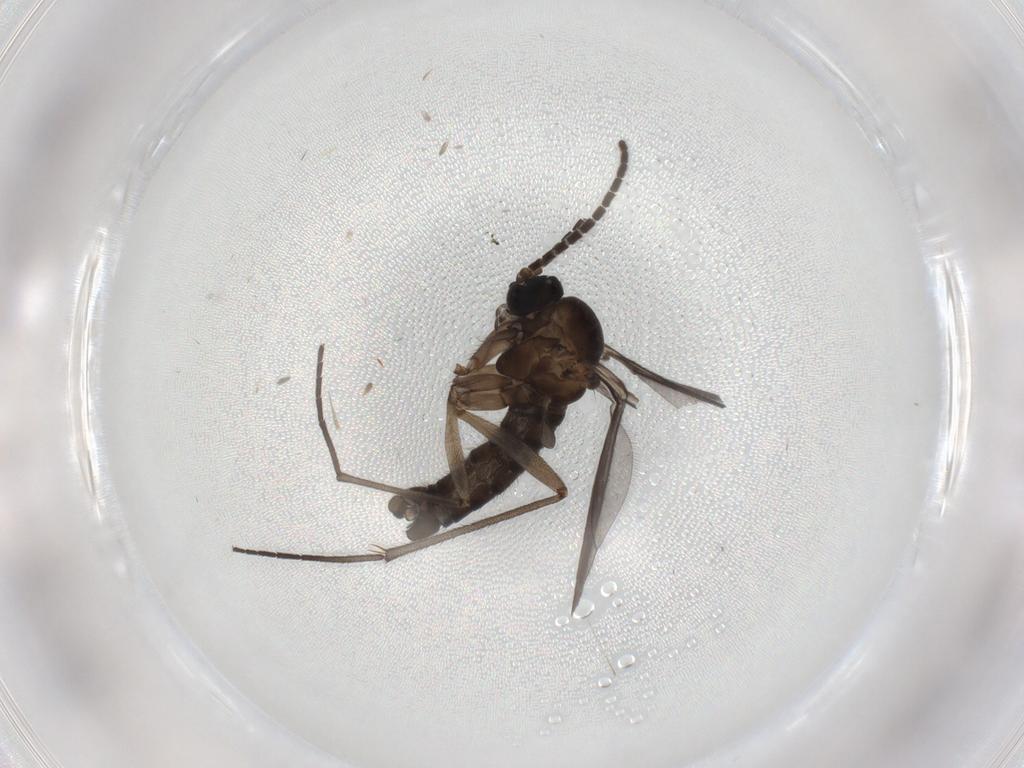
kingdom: Animalia
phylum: Arthropoda
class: Insecta
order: Diptera
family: Sciaridae
